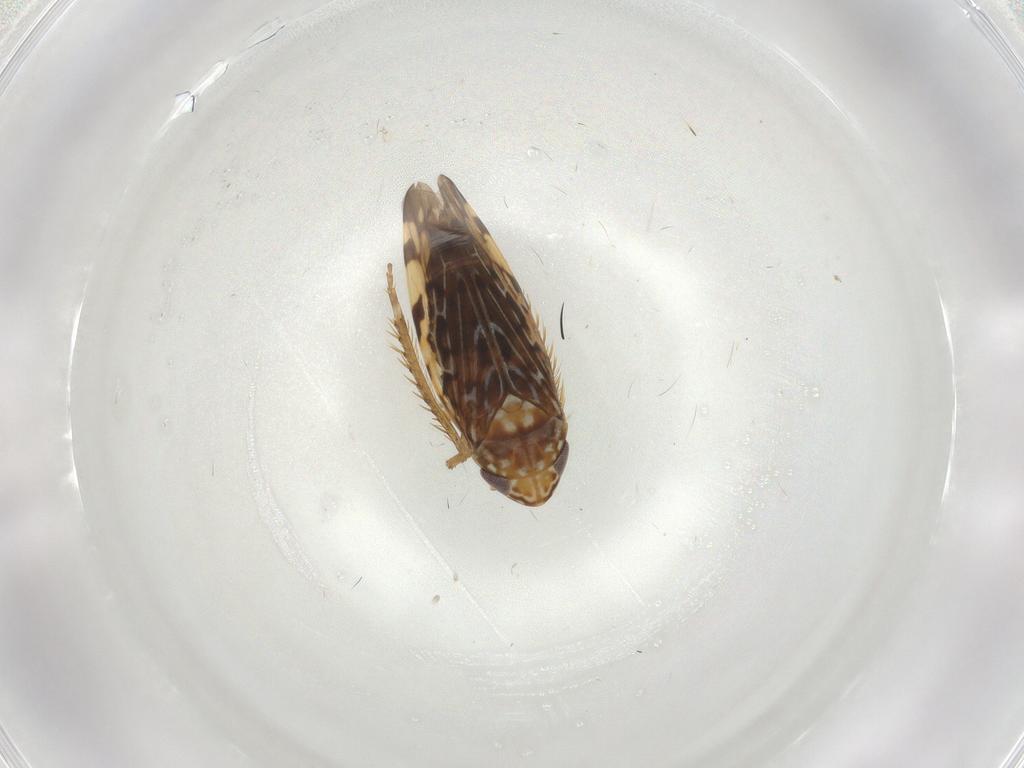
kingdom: Animalia
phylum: Arthropoda
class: Insecta
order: Hemiptera
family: Cicadellidae
